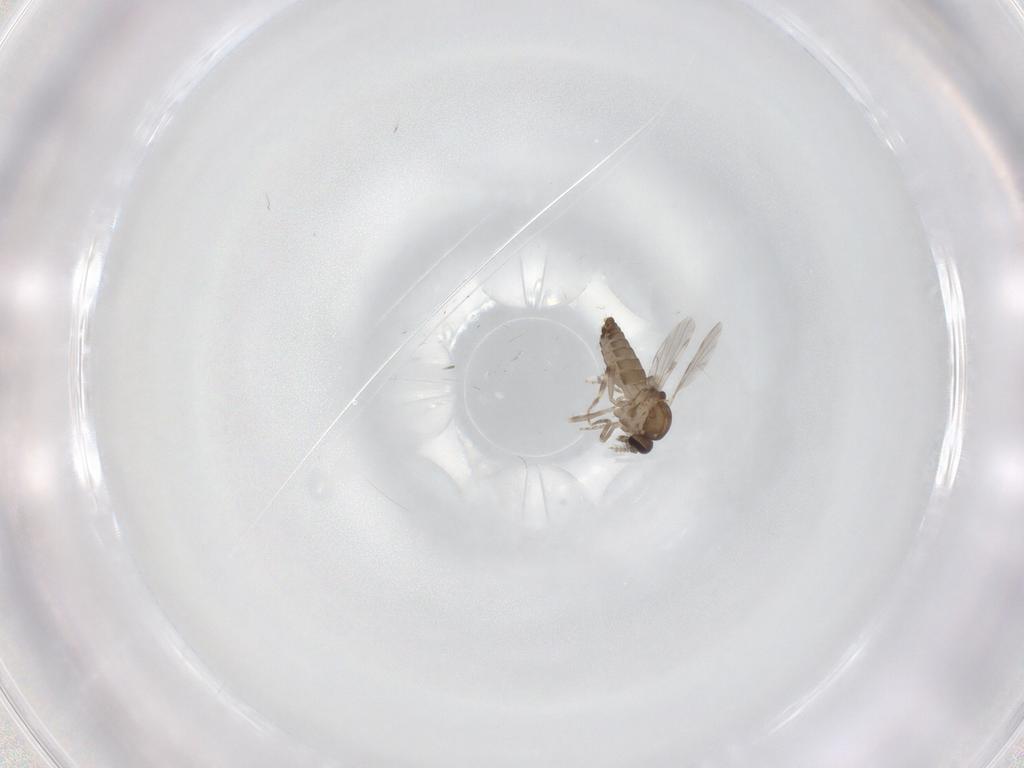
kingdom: Animalia
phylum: Arthropoda
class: Insecta
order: Diptera
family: Ceratopogonidae
